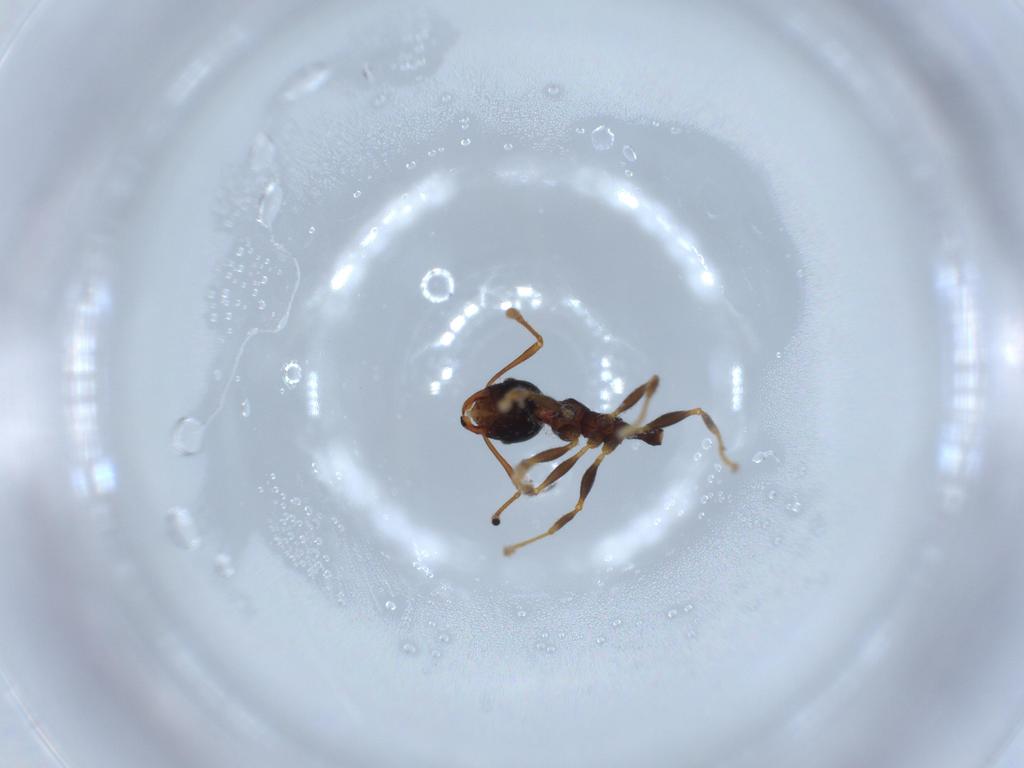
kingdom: Animalia
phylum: Arthropoda
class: Insecta
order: Hymenoptera
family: Formicidae
